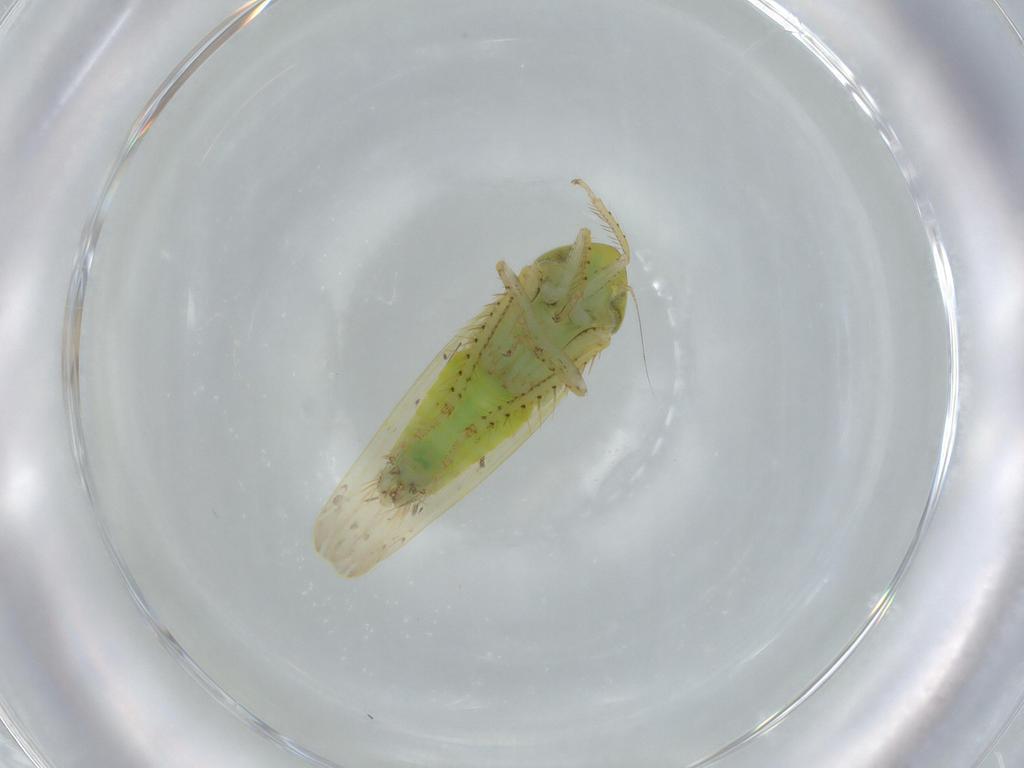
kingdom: Animalia
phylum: Arthropoda
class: Insecta
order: Hemiptera
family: Cicadellidae
